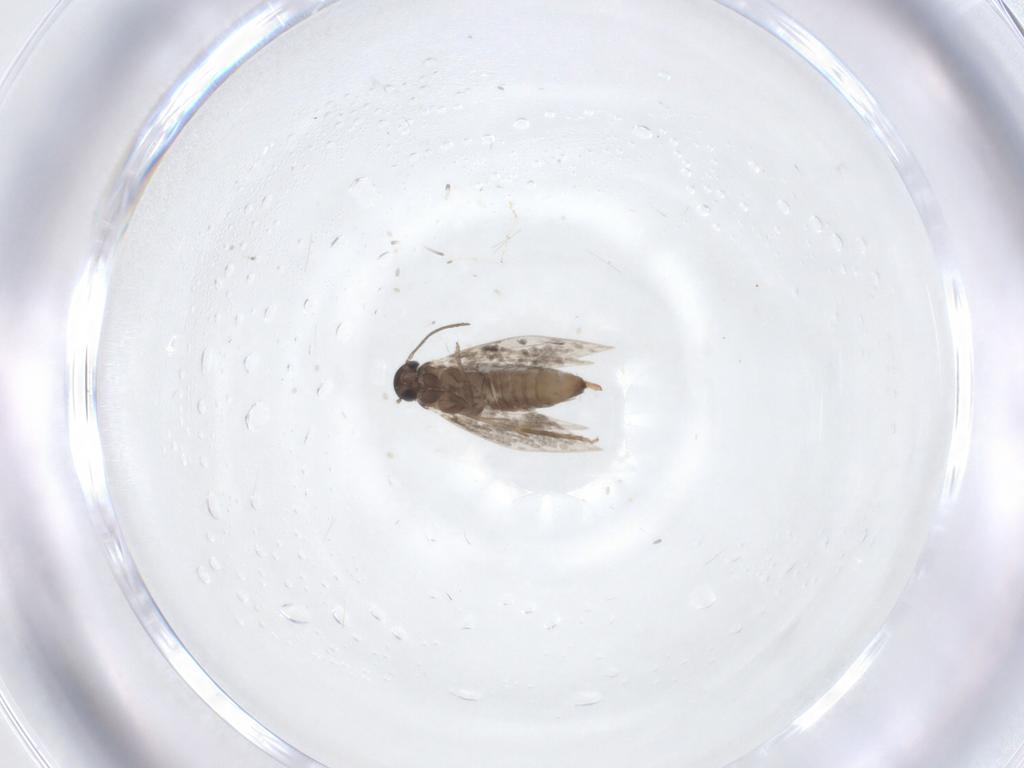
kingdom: Animalia
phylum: Arthropoda
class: Insecta
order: Lepidoptera
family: Heliozelidae
